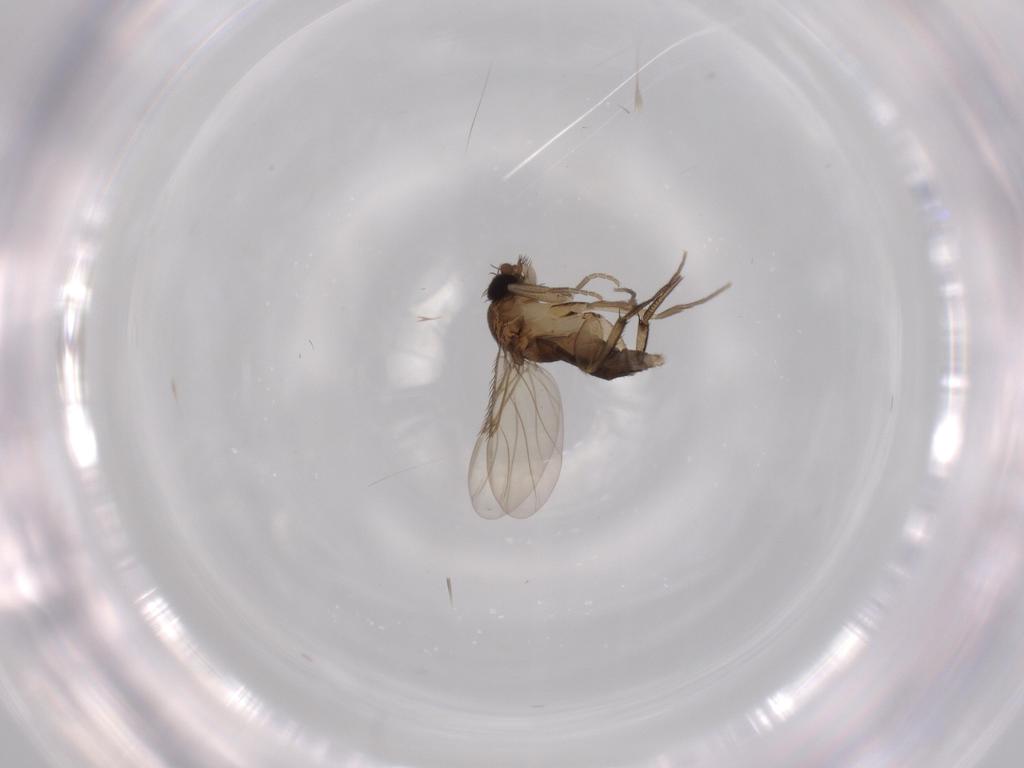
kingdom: Animalia
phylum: Arthropoda
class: Insecta
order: Diptera
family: Phoridae
